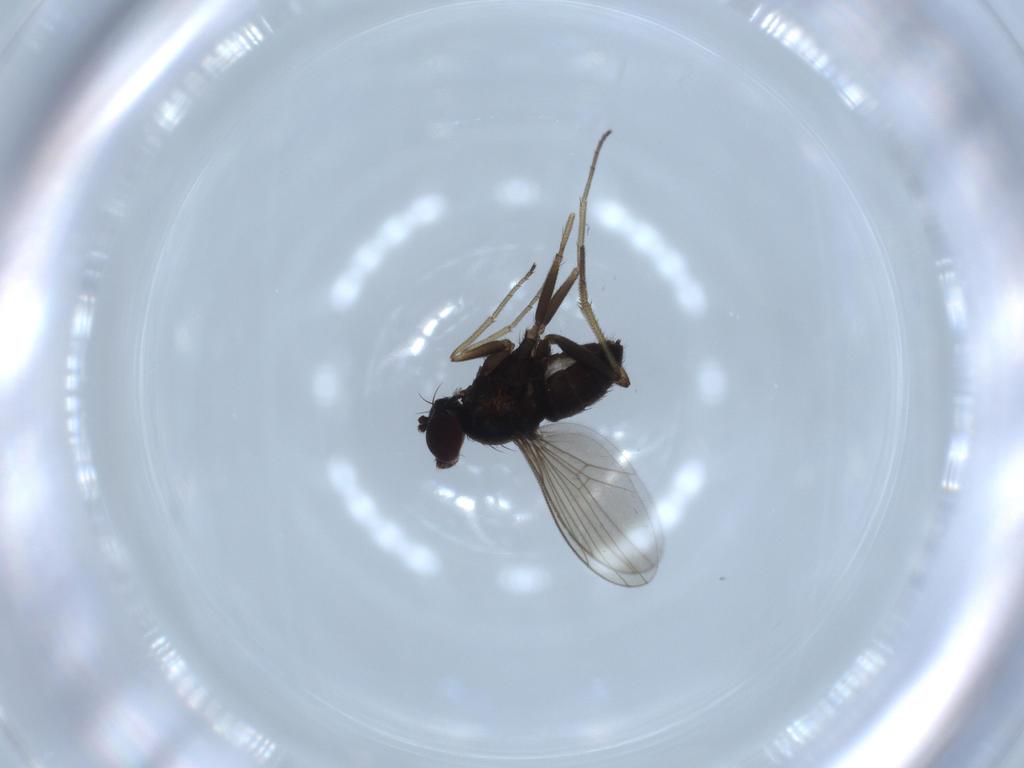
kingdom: Animalia
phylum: Arthropoda
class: Insecta
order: Diptera
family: Dolichopodidae
